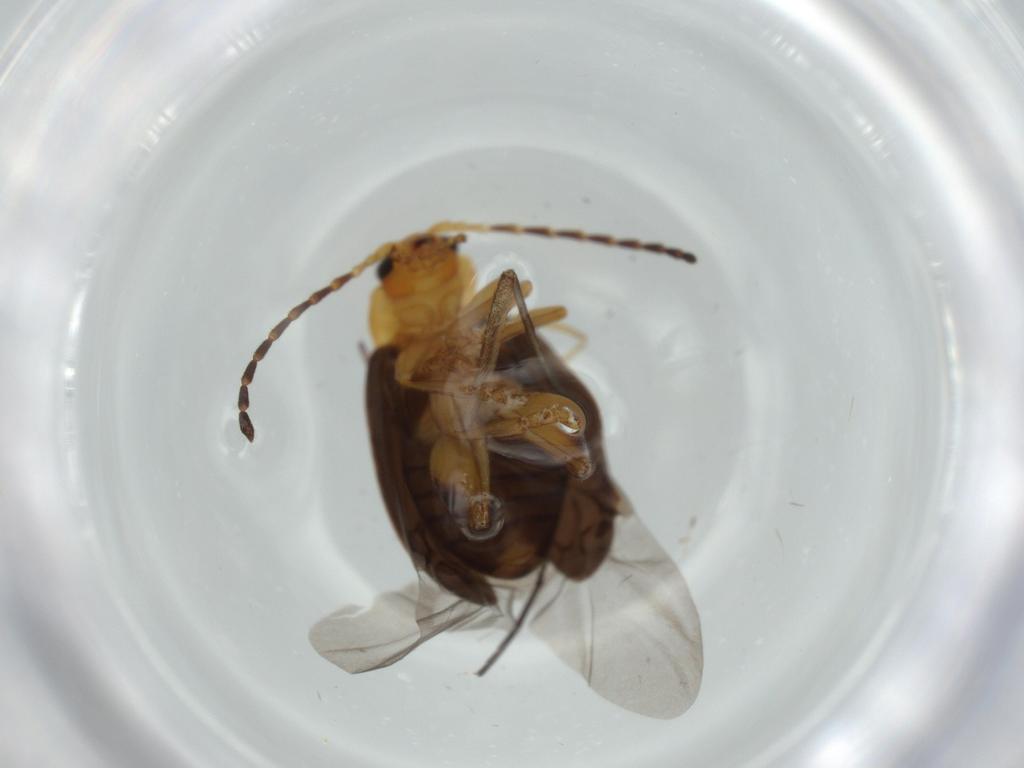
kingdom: Animalia
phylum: Arthropoda
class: Insecta
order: Coleoptera
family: Chrysomelidae
